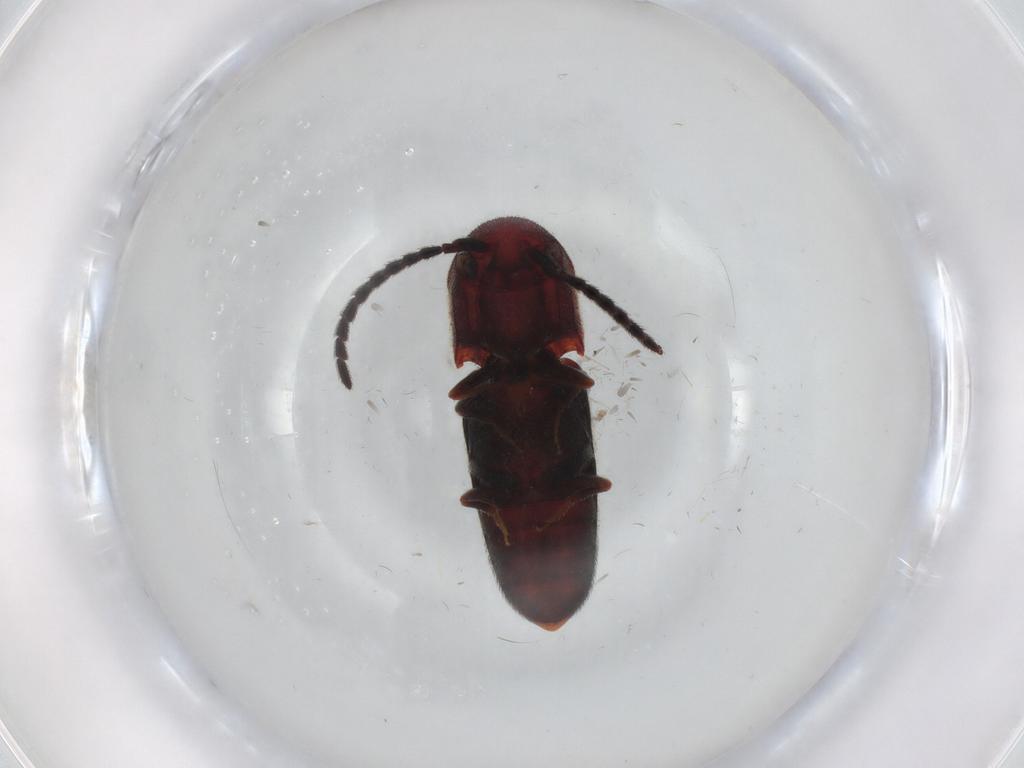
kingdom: Animalia
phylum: Arthropoda
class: Insecta
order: Coleoptera
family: Eucnemidae
